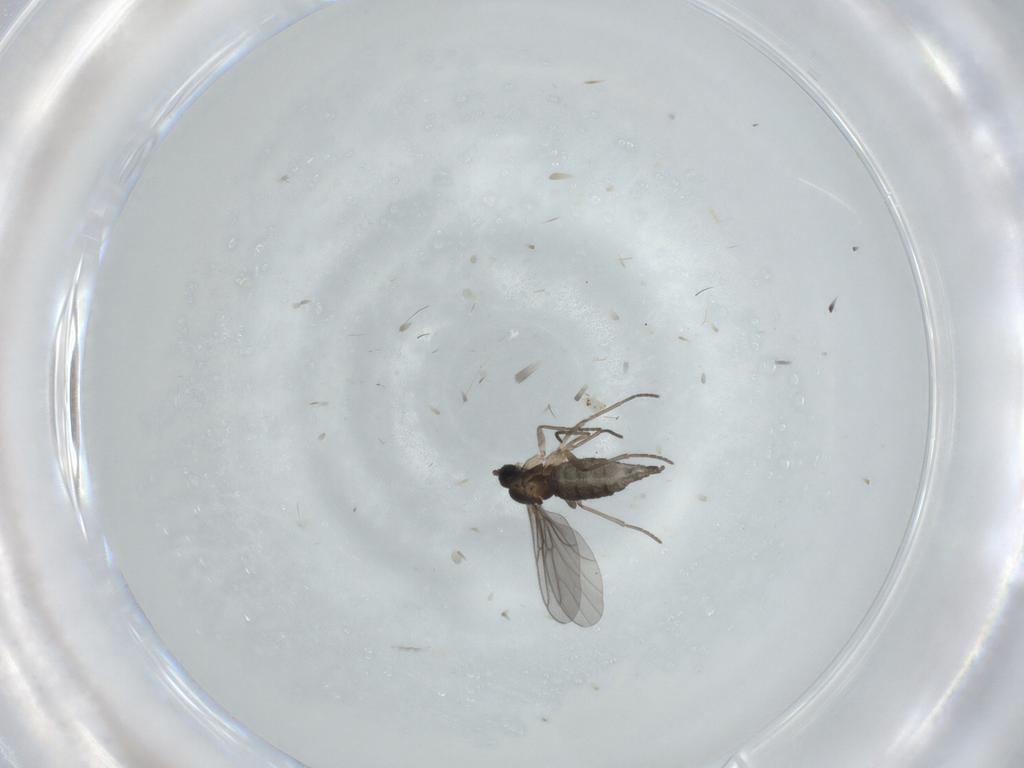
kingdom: Animalia
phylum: Arthropoda
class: Insecta
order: Diptera
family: Sciaridae
